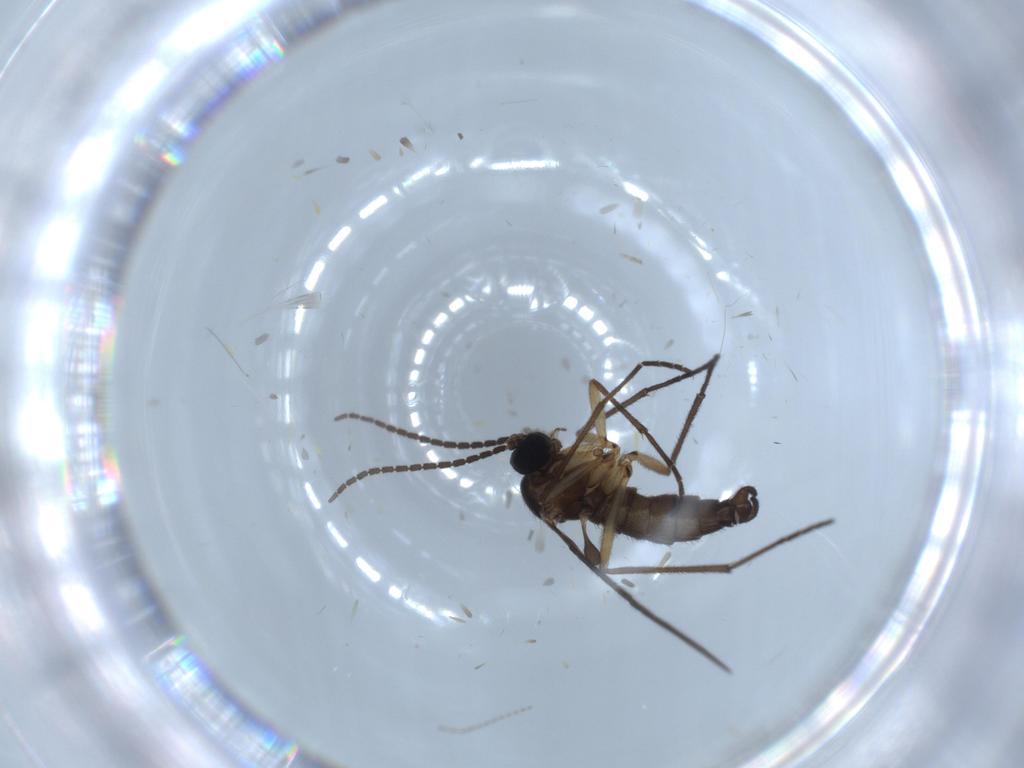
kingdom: Animalia
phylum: Arthropoda
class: Insecta
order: Diptera
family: Sciaridae
